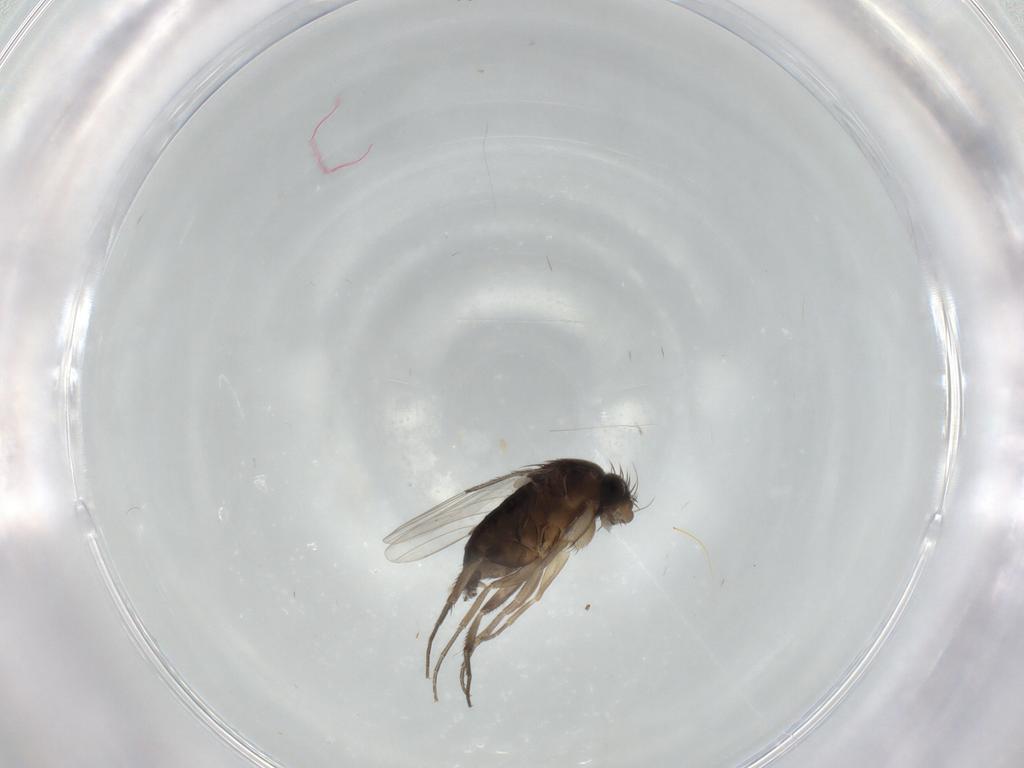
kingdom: Animalia
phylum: Arthropoda
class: Insecta
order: Diptera
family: Phoridae
